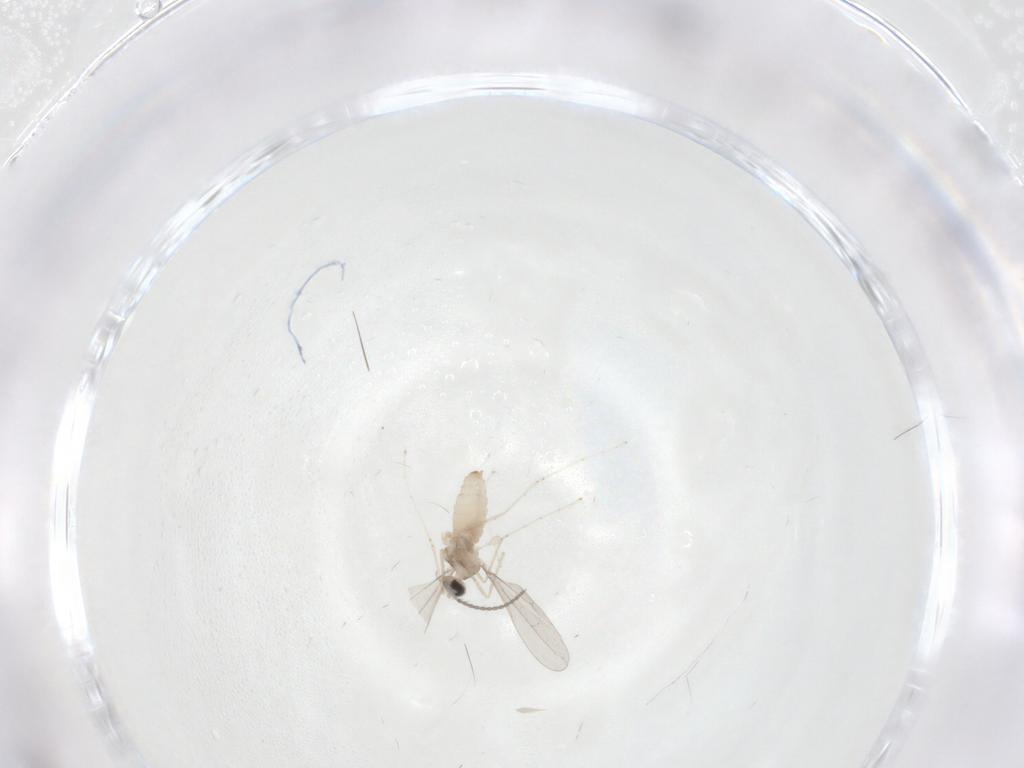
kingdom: Animalia
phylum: Arthropoda
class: Insecta
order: Diptera
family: Cecidomyiidae
